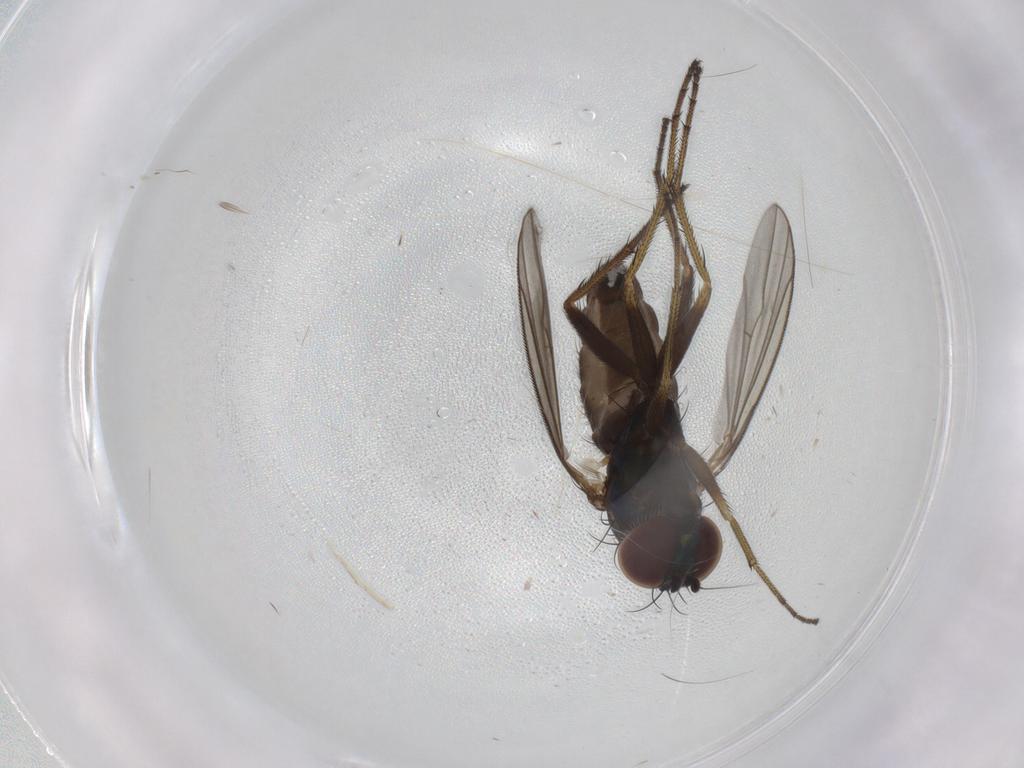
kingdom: Animalia
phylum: Arthropoda
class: Insecta
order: Diptera
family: Dolichopodidae
